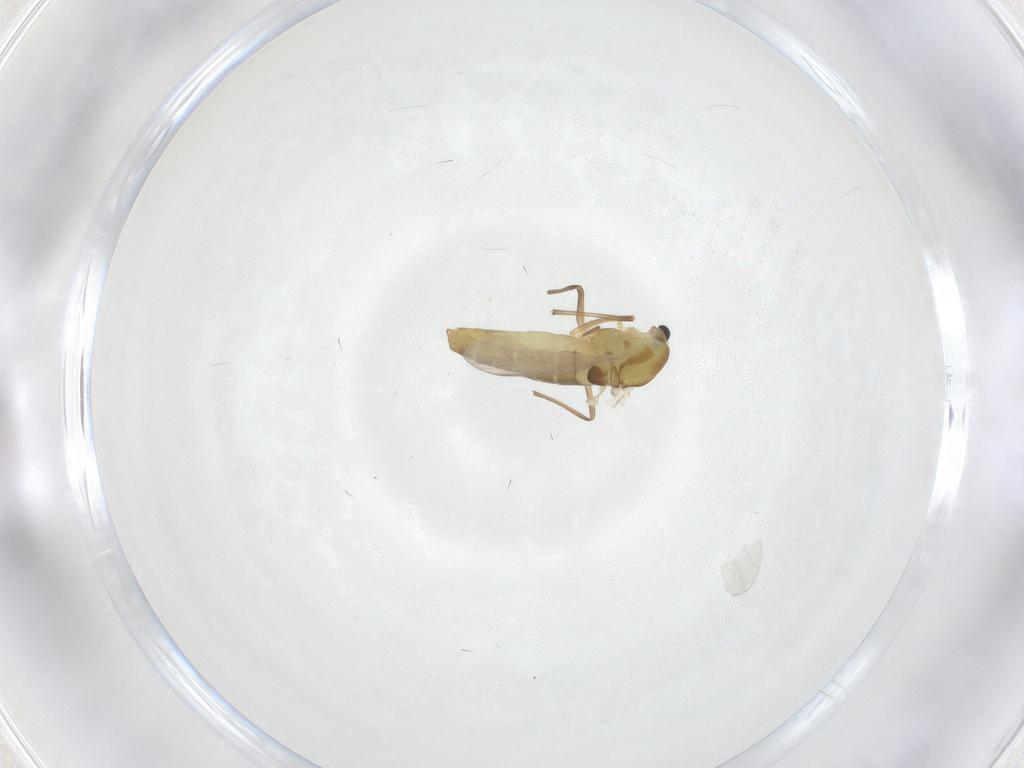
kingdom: Animalia
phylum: Arthropoda
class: Insecta
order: Diptera
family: Chironomidae
